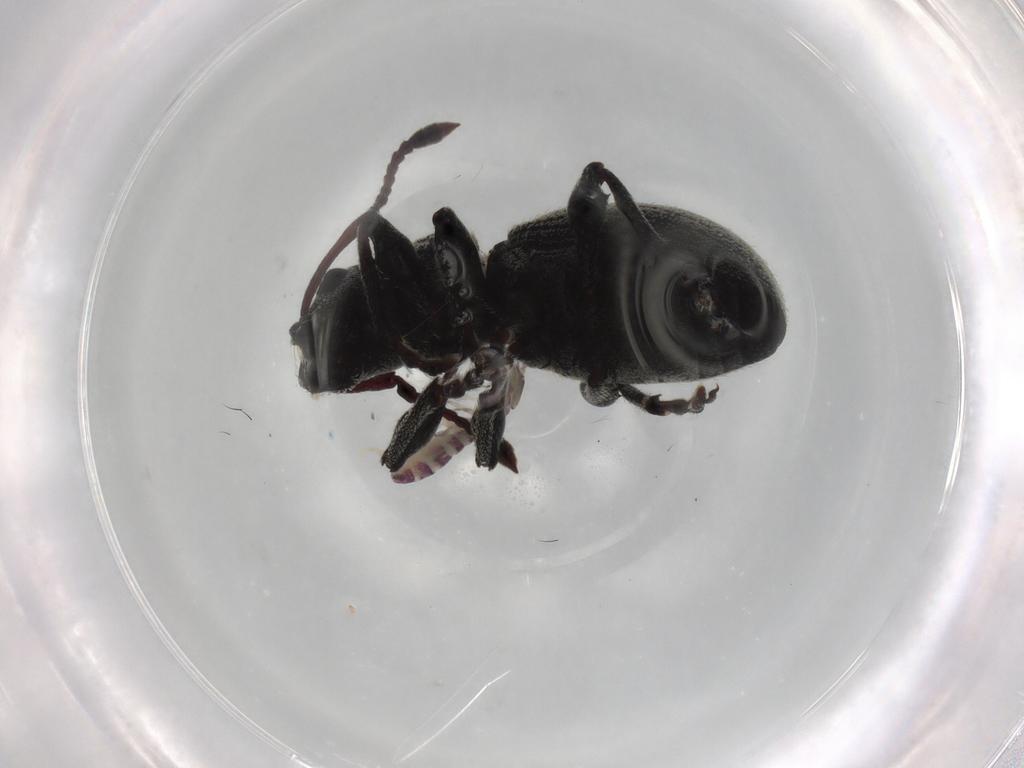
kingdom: Animalia
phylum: Arthropoda
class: Insecta
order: Coleoptera
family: Curculionidae
